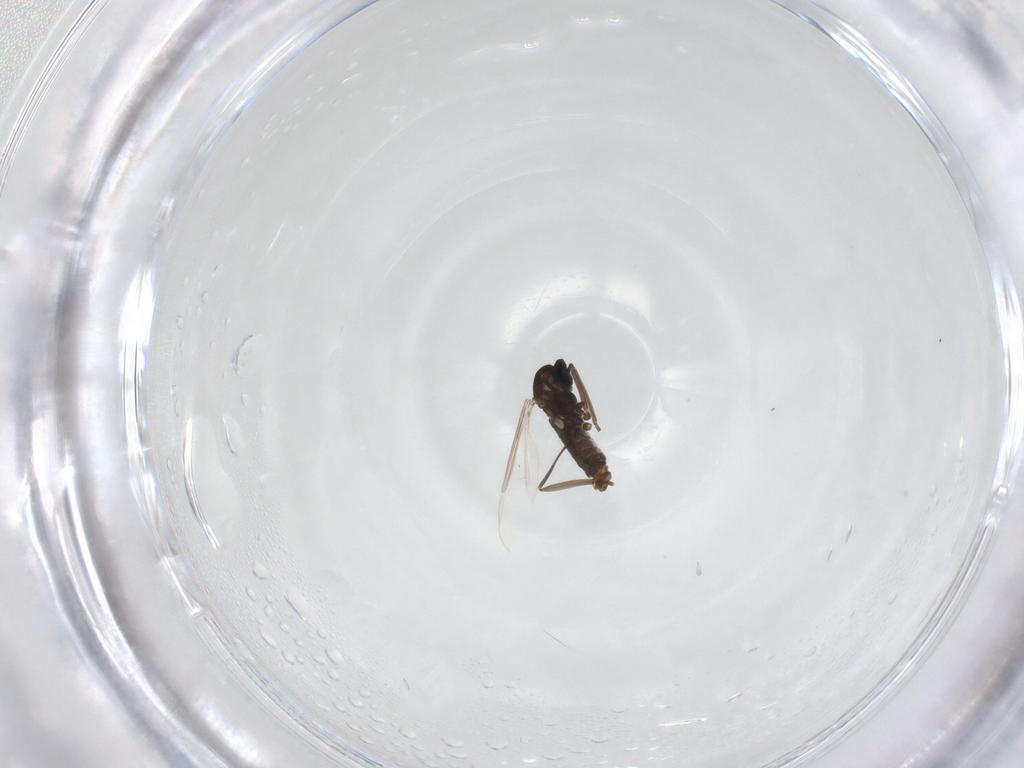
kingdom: Animalia
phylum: Arthropoda
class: Insecta
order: Diptera
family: Cecidomyiidae
